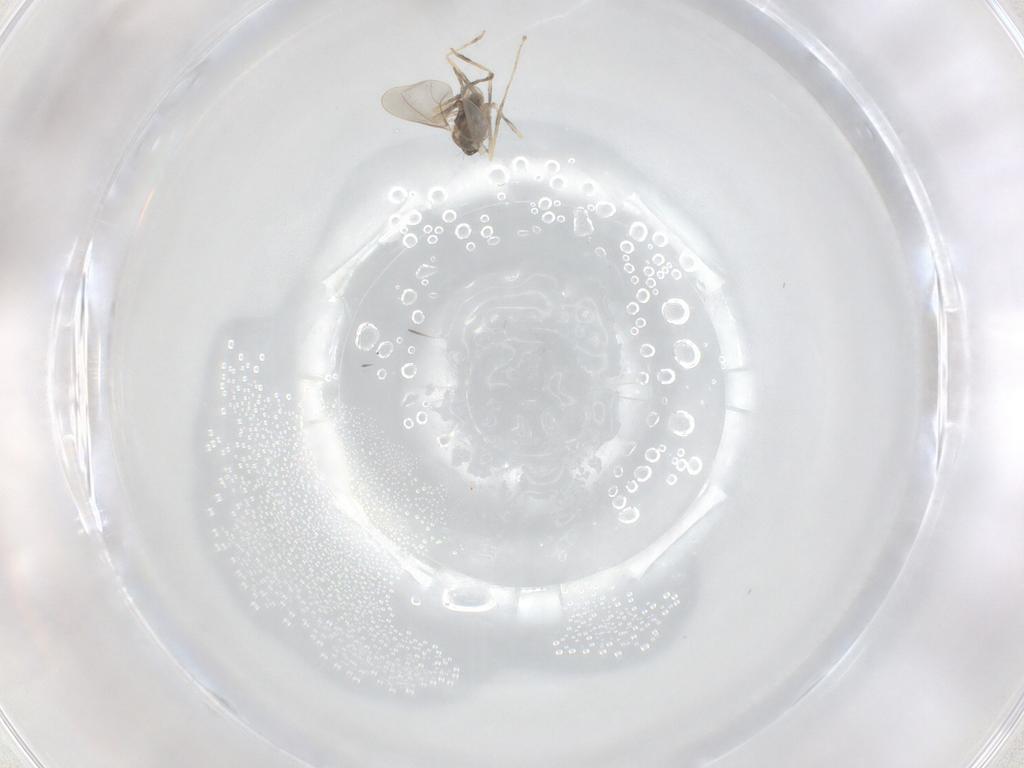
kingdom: Animalia
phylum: Arthropoda
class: Insecta
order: Diptera
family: Cecidomyiidae
